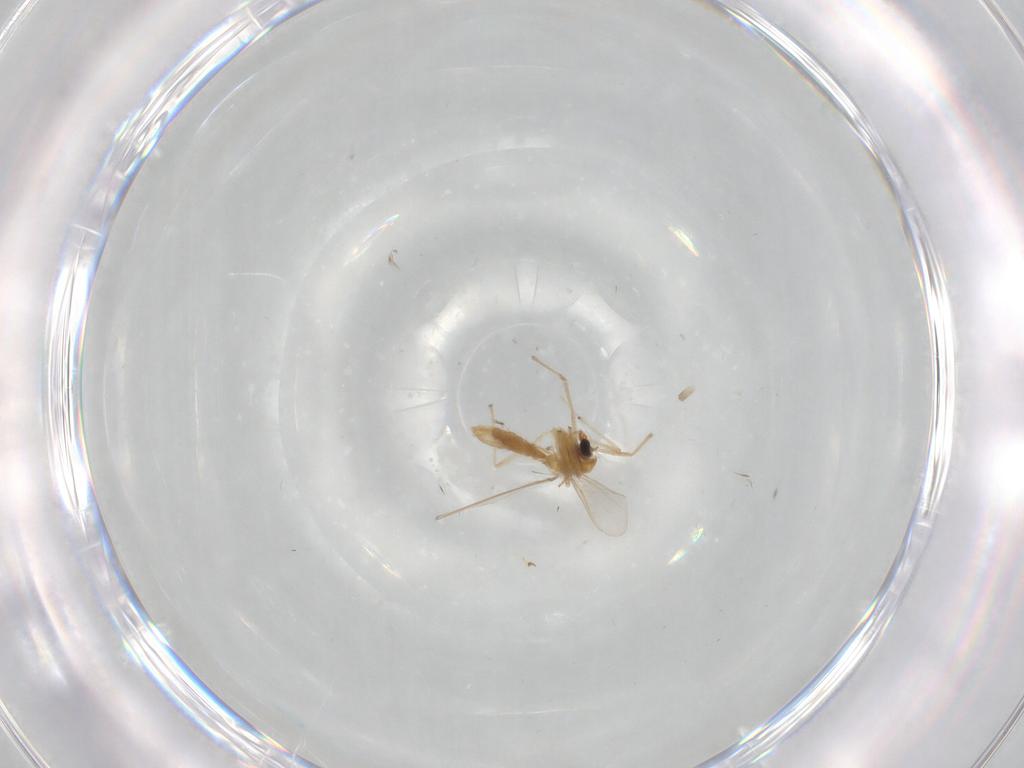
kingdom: Animalia
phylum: Arthropoda
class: Insecta
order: Diptera
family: Chironomidae
